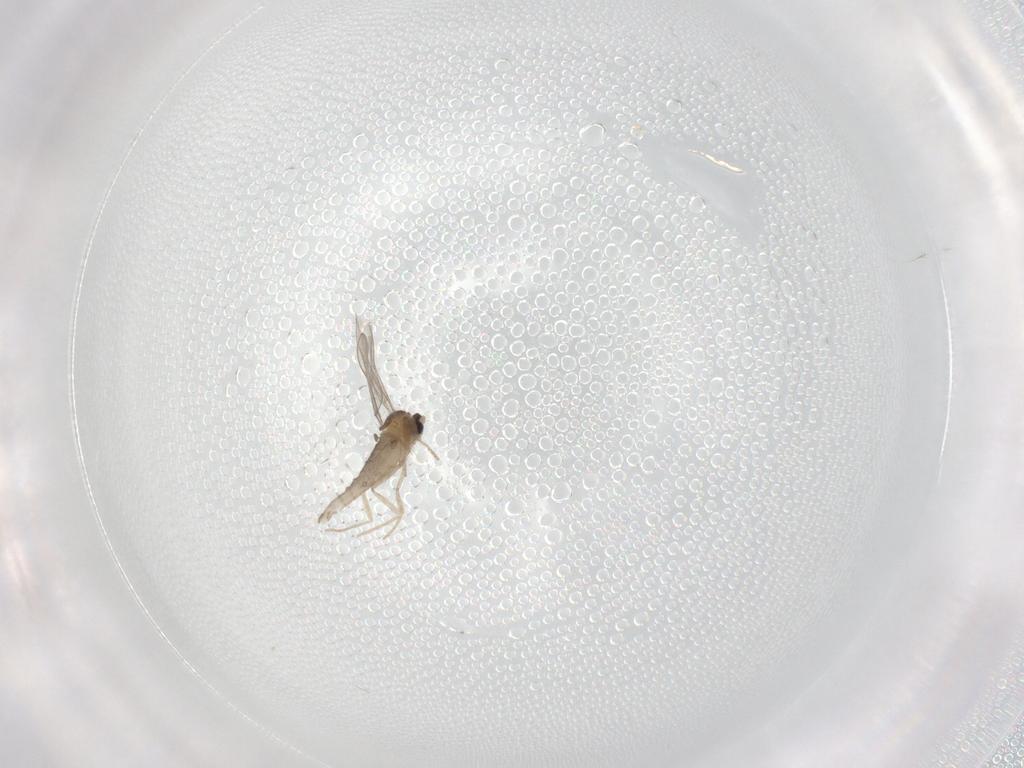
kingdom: Animalia
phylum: Arthropoda
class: Insecta
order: Diptera
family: Cecidomyiidae
